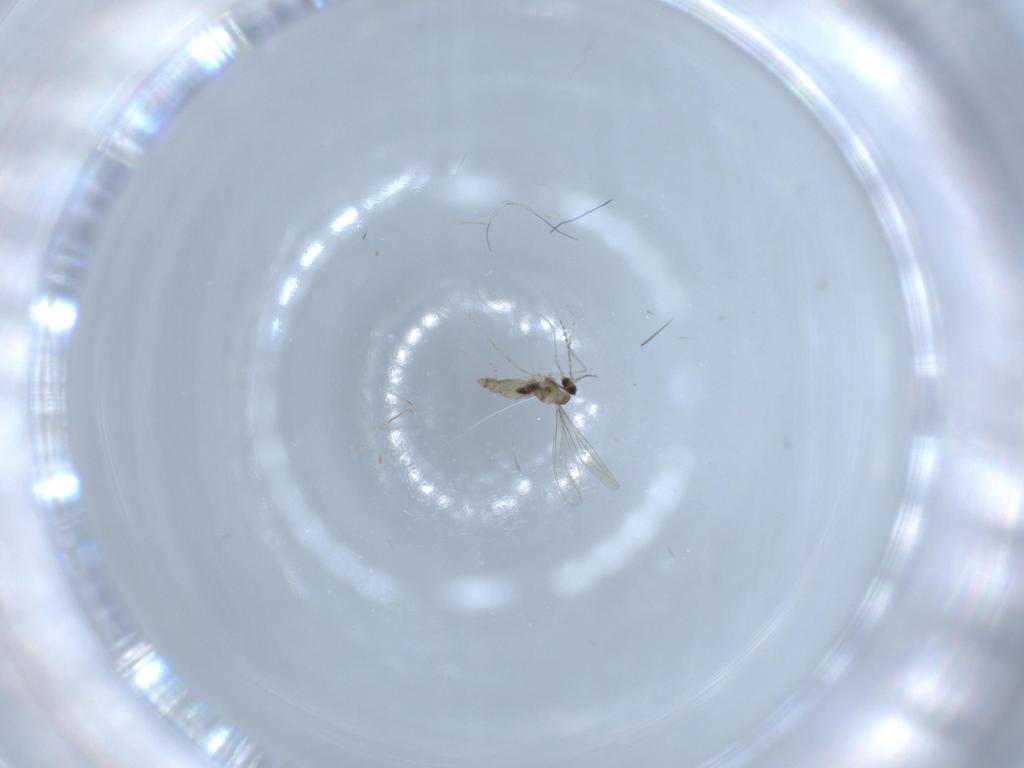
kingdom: Animalia
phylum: Arthropoda
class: Insecta
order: Diptera
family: Cecidomyiidae
